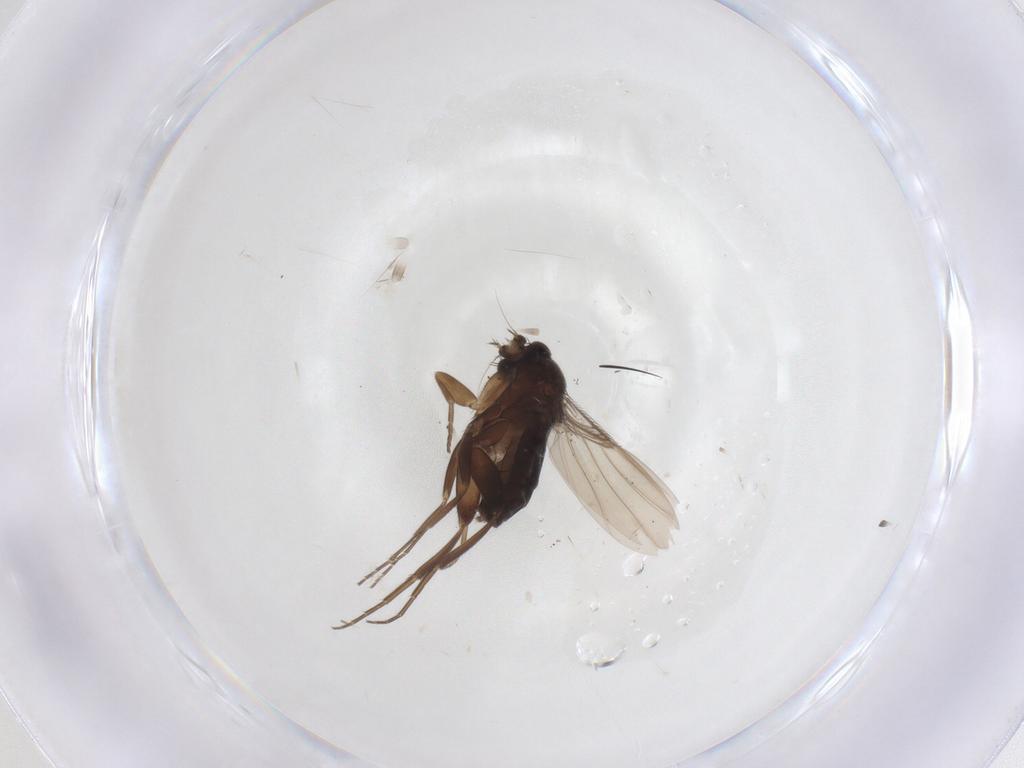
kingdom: Animalia
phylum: Arthropoda
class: Insecta
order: Diptera
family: Phoridae
